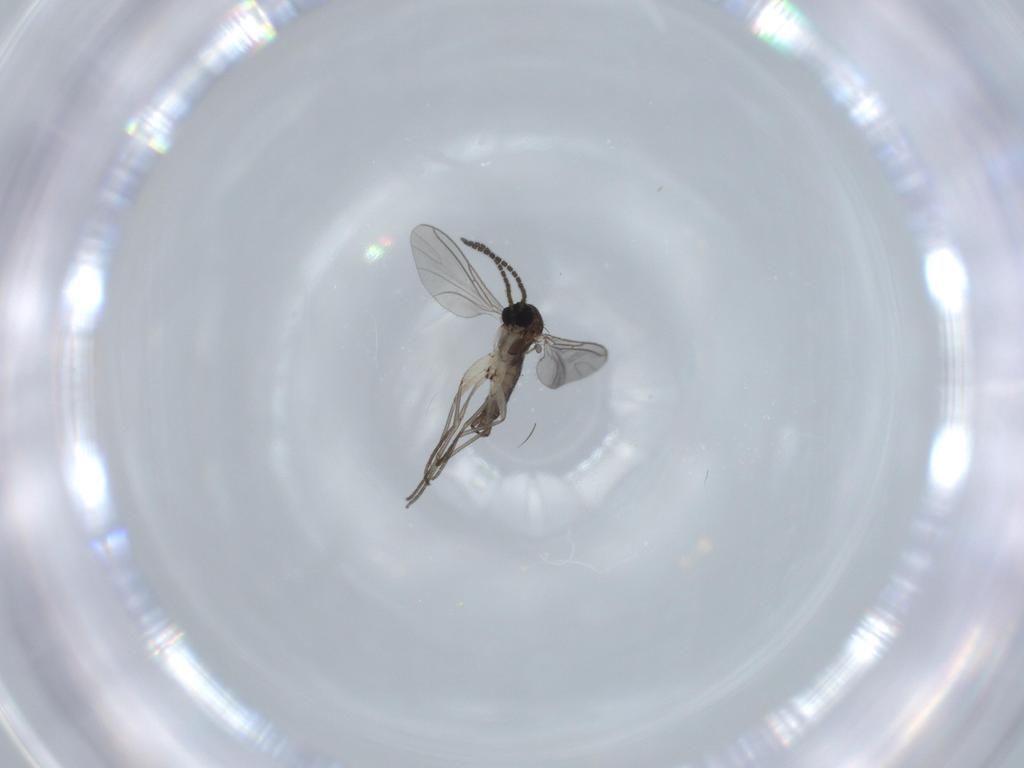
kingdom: Animalia
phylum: Arthropoda
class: Insecta
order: Diptera
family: Sciaridae
